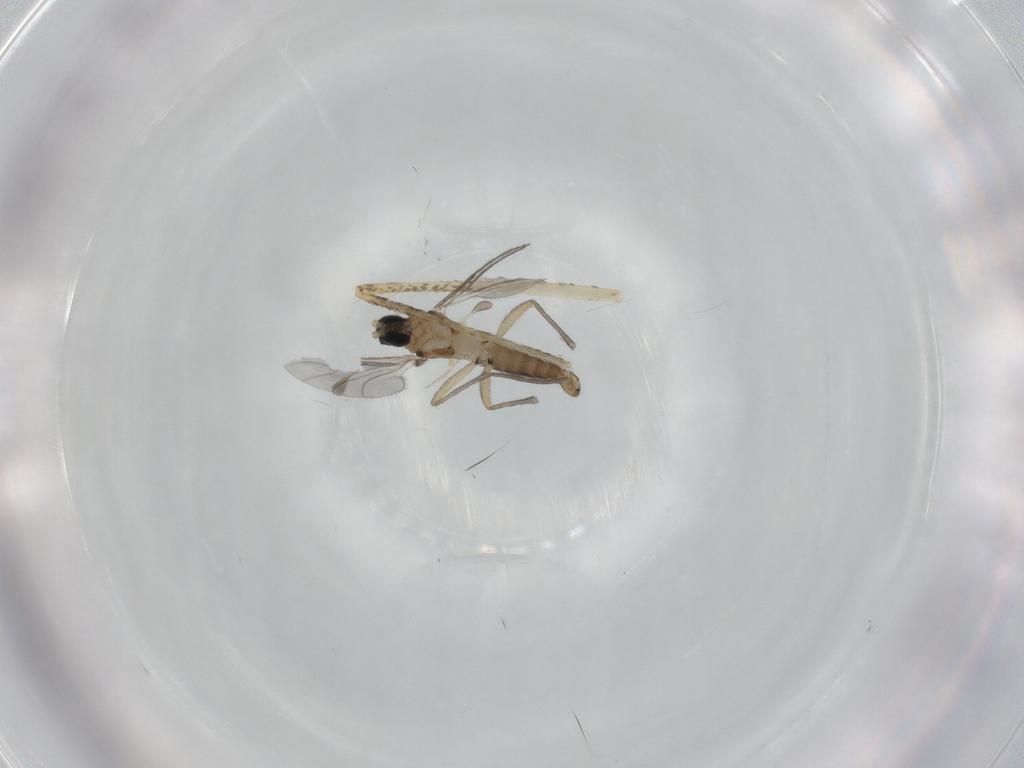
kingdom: Animalia
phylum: Arthropoda
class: Insecta
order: Diptera
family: Culicidae
